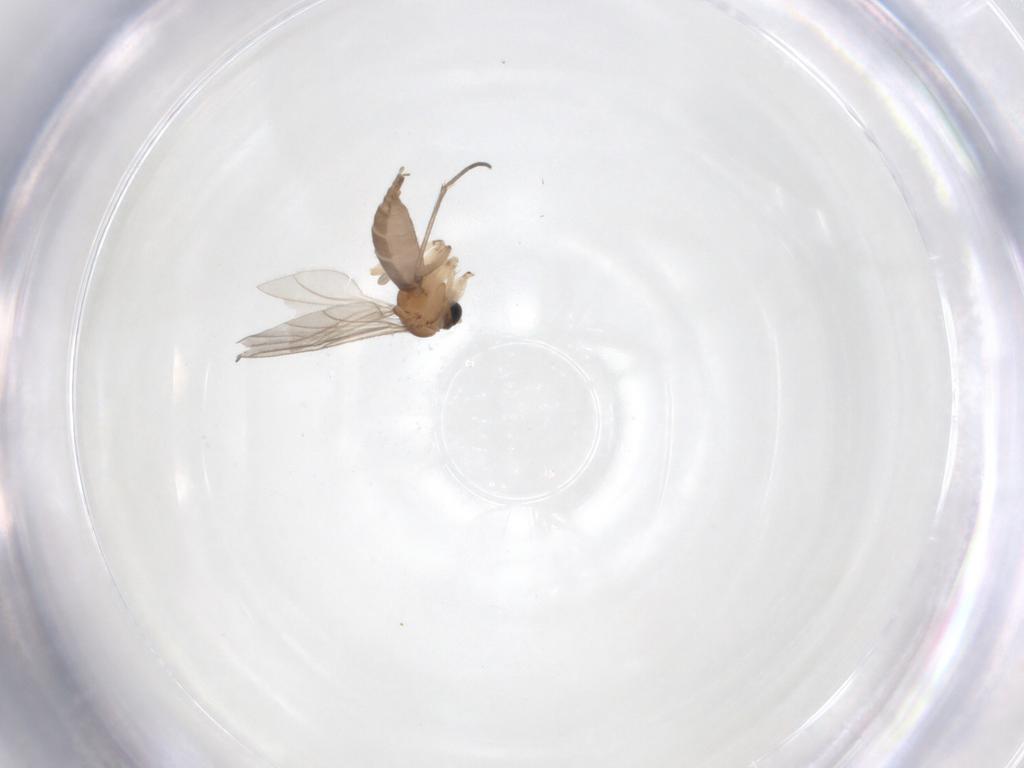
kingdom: Animalia
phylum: Arthropoda
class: Insecta
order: Diptera
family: Sciaridae
